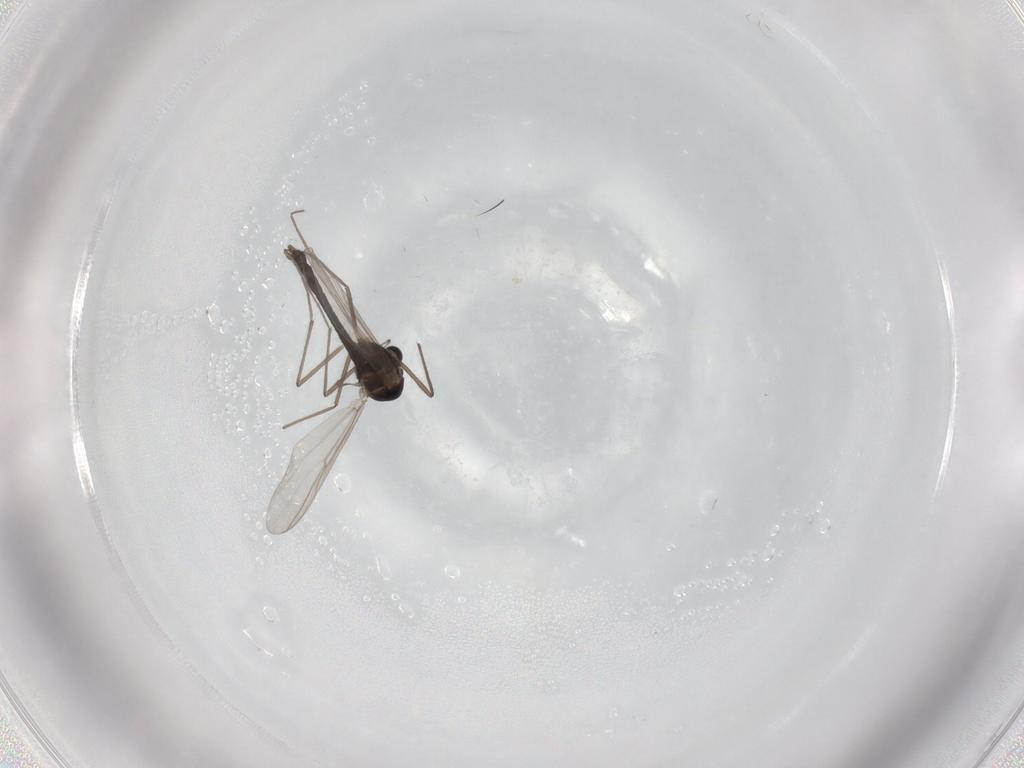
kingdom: Animalia
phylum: Arthropoda
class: Insecta
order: Diptera
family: Chironomidae
